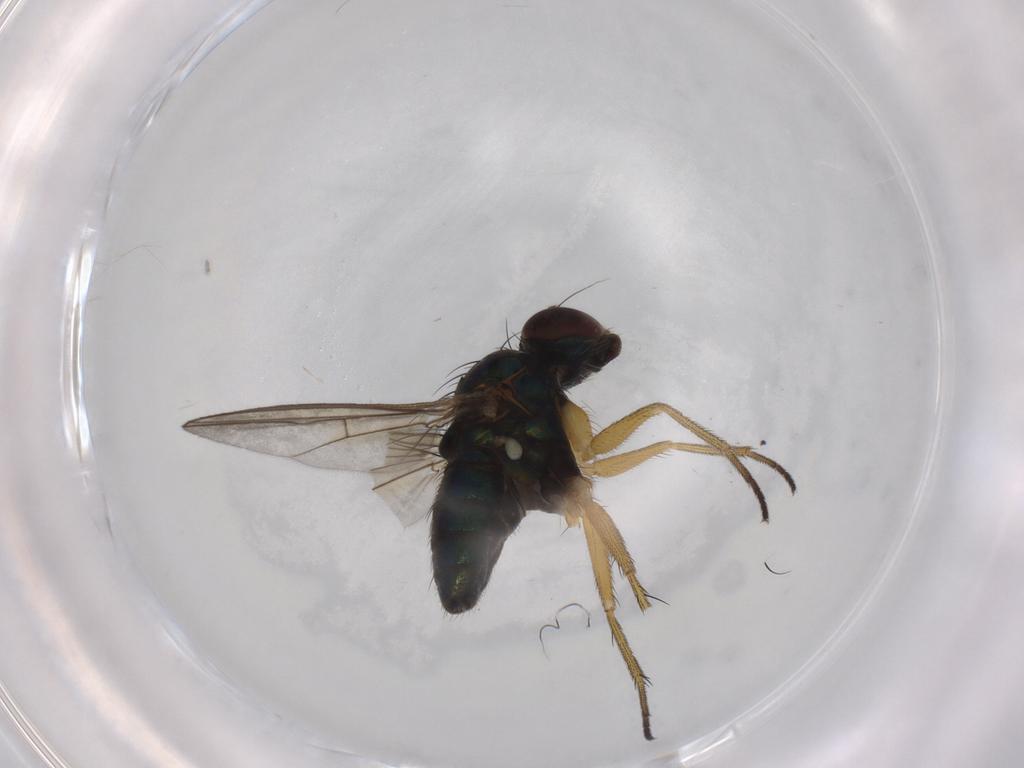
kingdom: Animalia
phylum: Arthropoda
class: Insecta
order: Diptera
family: Dolichopodidae
